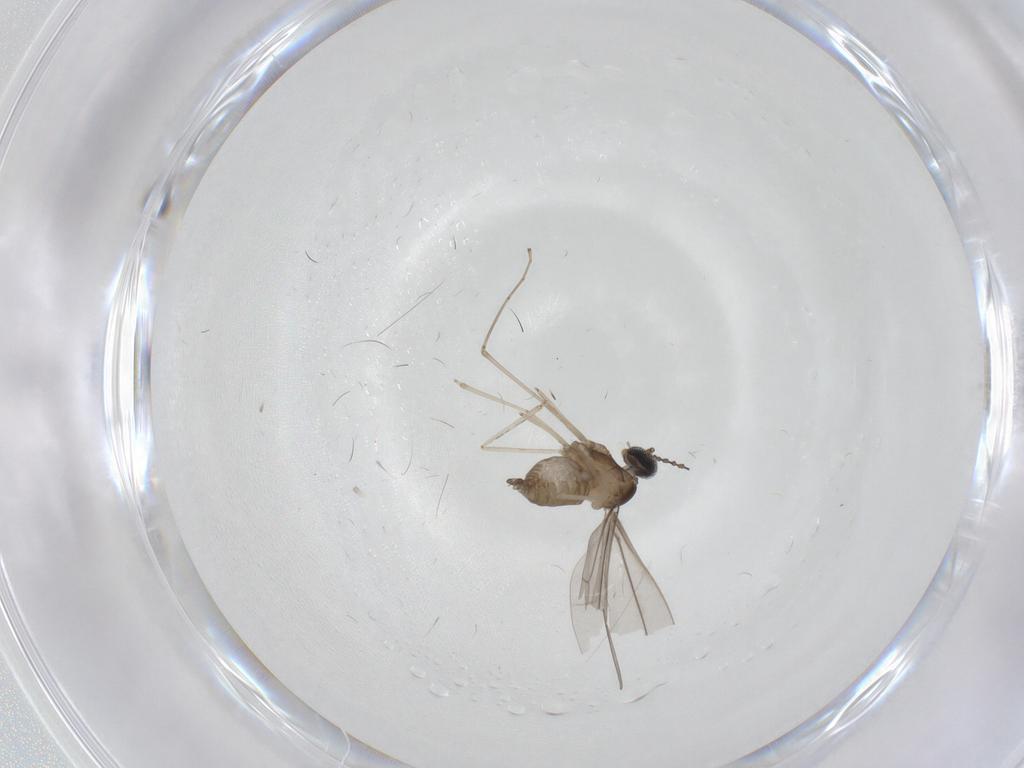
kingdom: Animalia
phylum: Arthropoda
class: Insecta
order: Diptera
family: Cecidomyiidae
